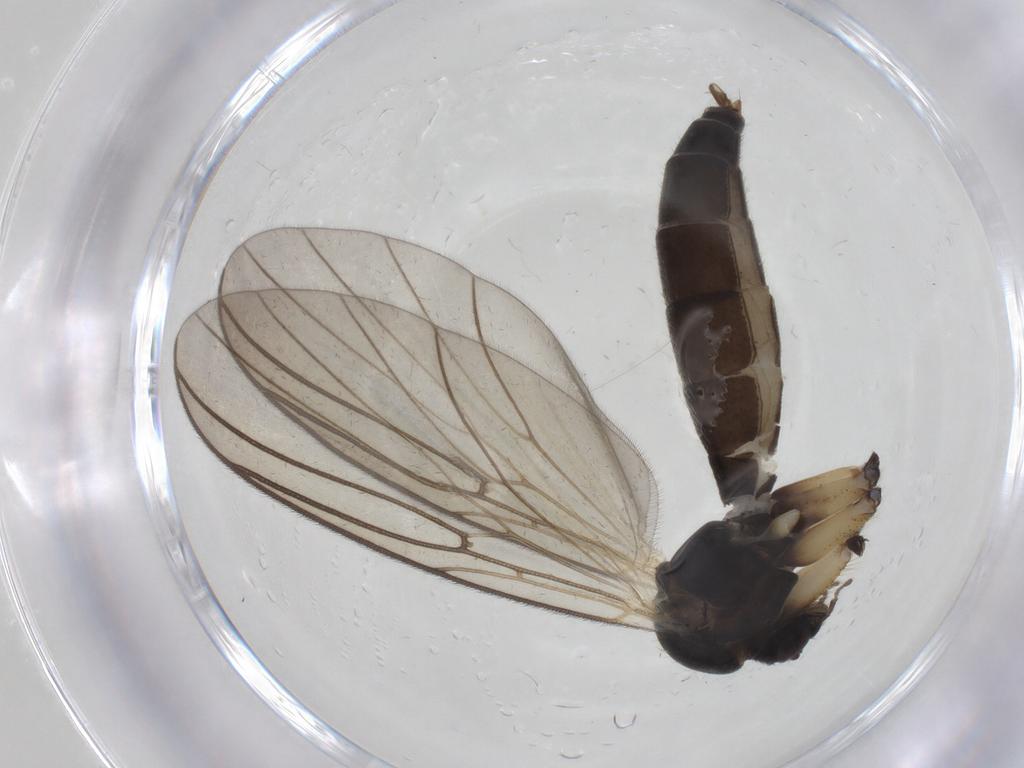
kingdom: Animalia
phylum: Arthropoda
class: Insecta
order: Diptera
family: Mycetophilidae
